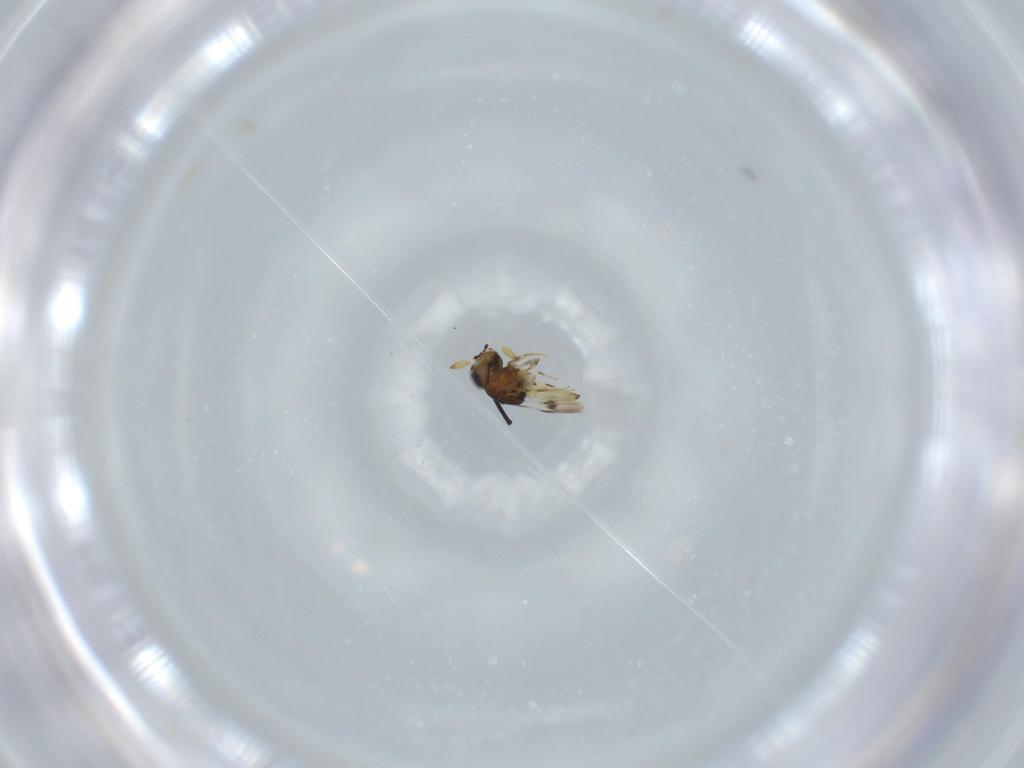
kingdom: Animalia
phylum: Arthropoda
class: Insecta
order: Hymenoptera
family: Scelionidae
